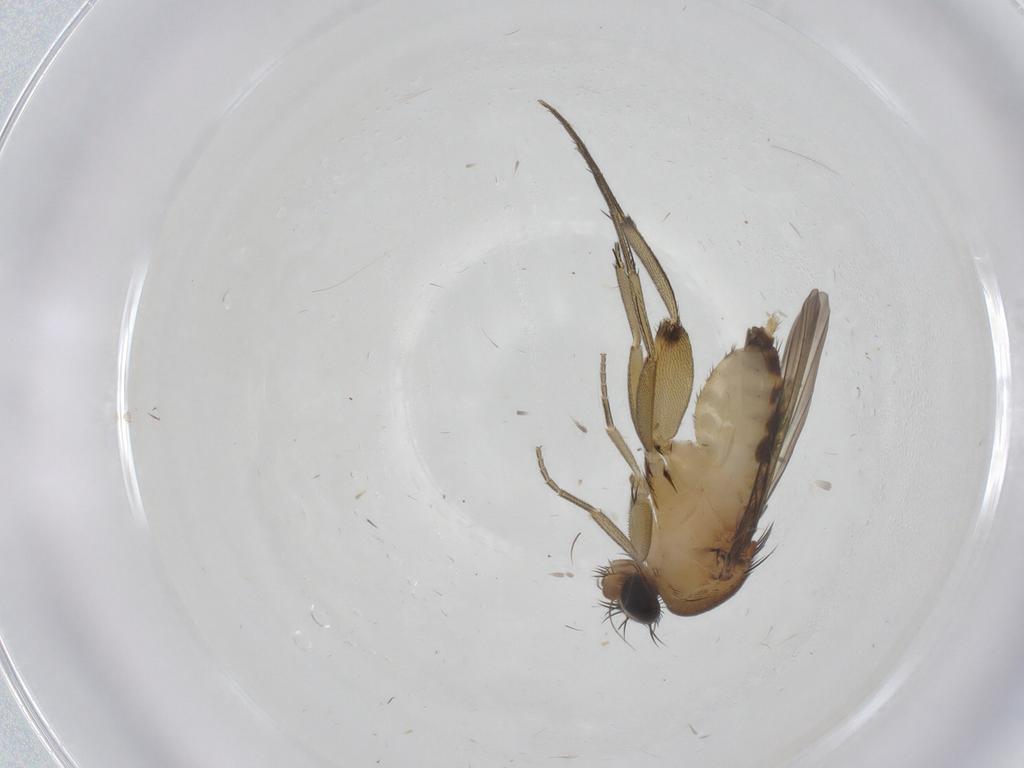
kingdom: Animalia
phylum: Arthropoda
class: Insecta
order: Diptera
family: Phoridae
